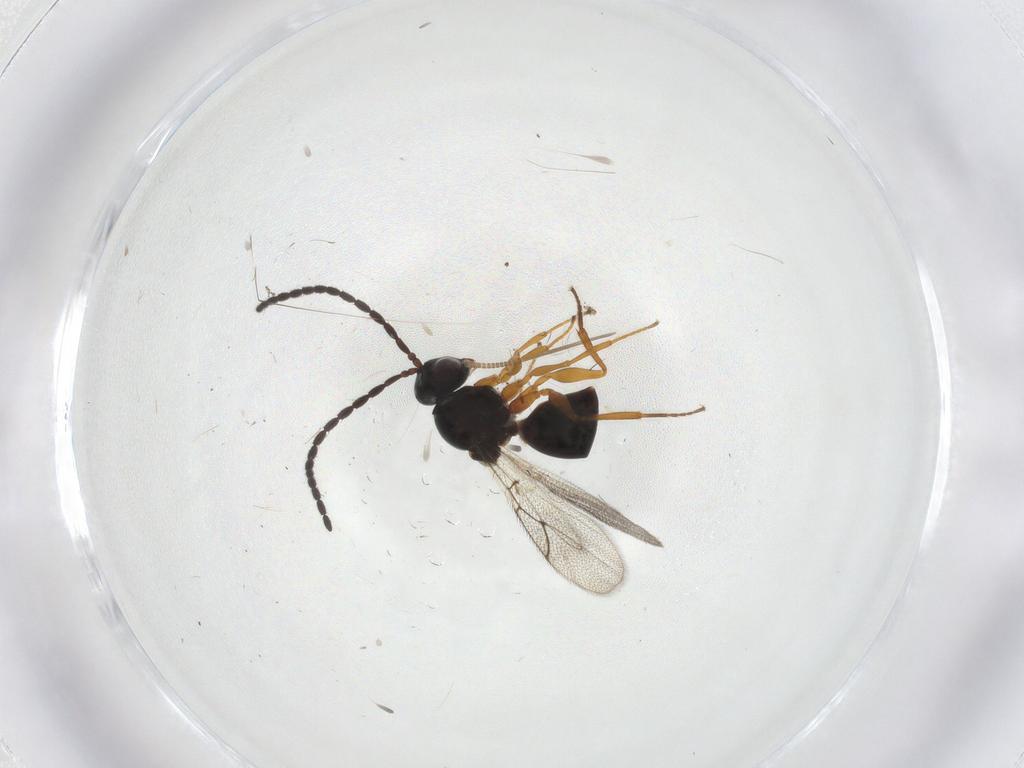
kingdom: Animalia
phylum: Arthropoda
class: Insecta
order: Hymenoptera
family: Figitidae
